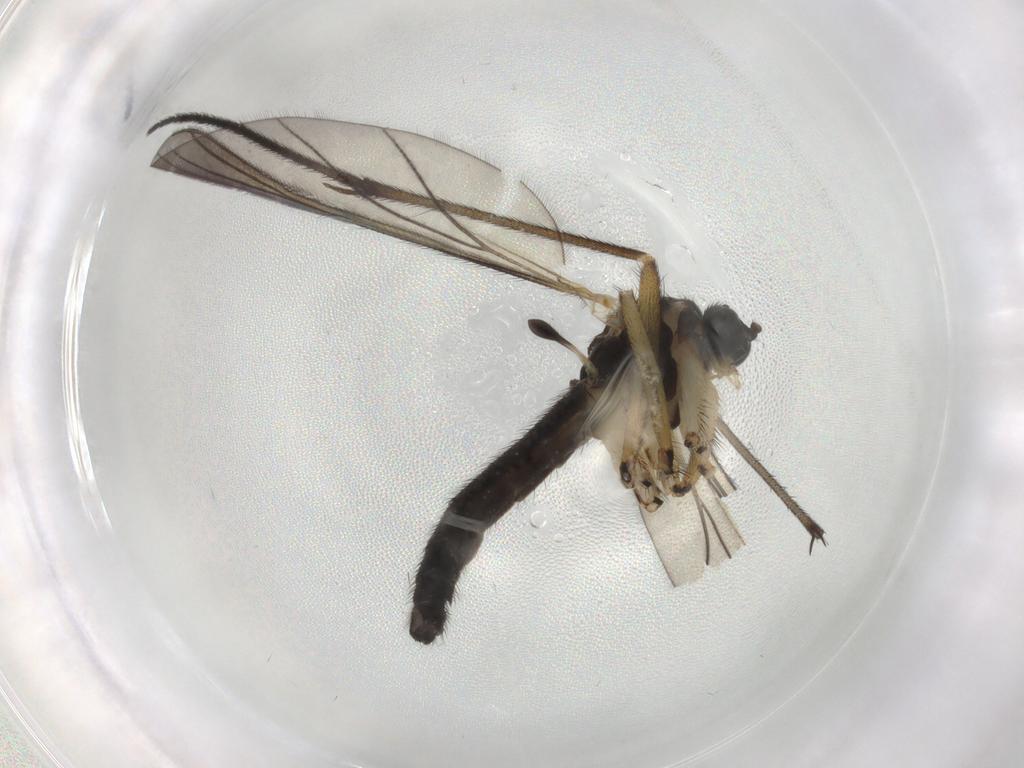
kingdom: Animalia
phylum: Arthropoda
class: Insecta
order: Diptera
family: Sciaridae
